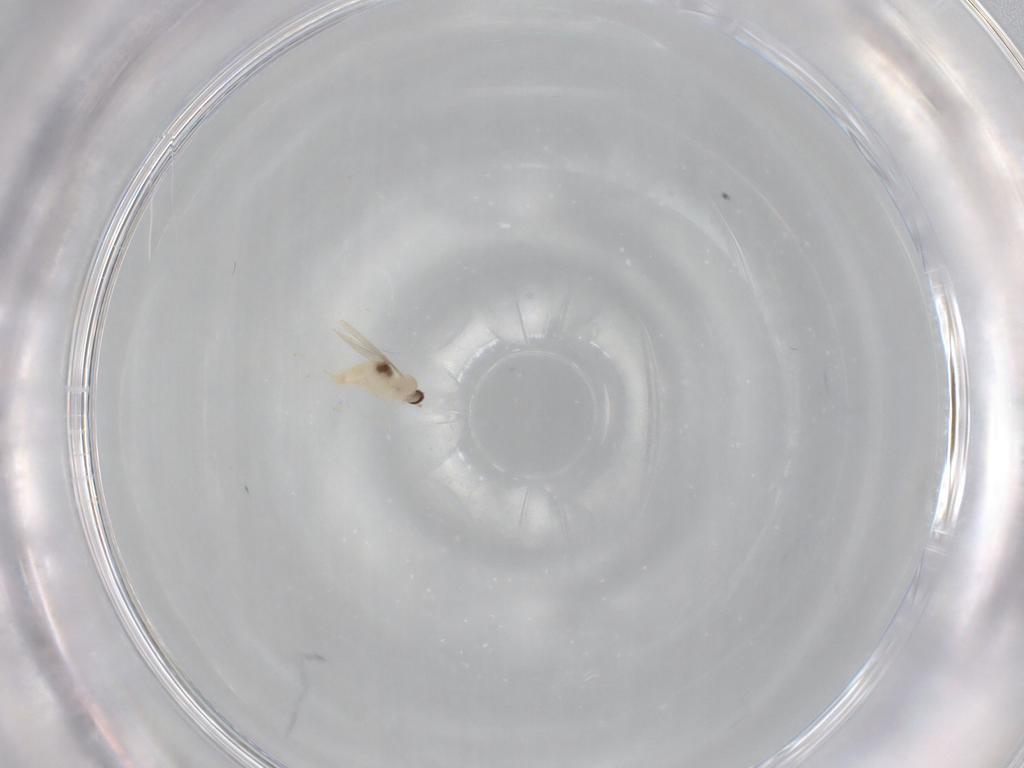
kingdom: Animalia
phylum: Arthropoda
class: Insecta
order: Diptera
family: Cecidomyiidae
